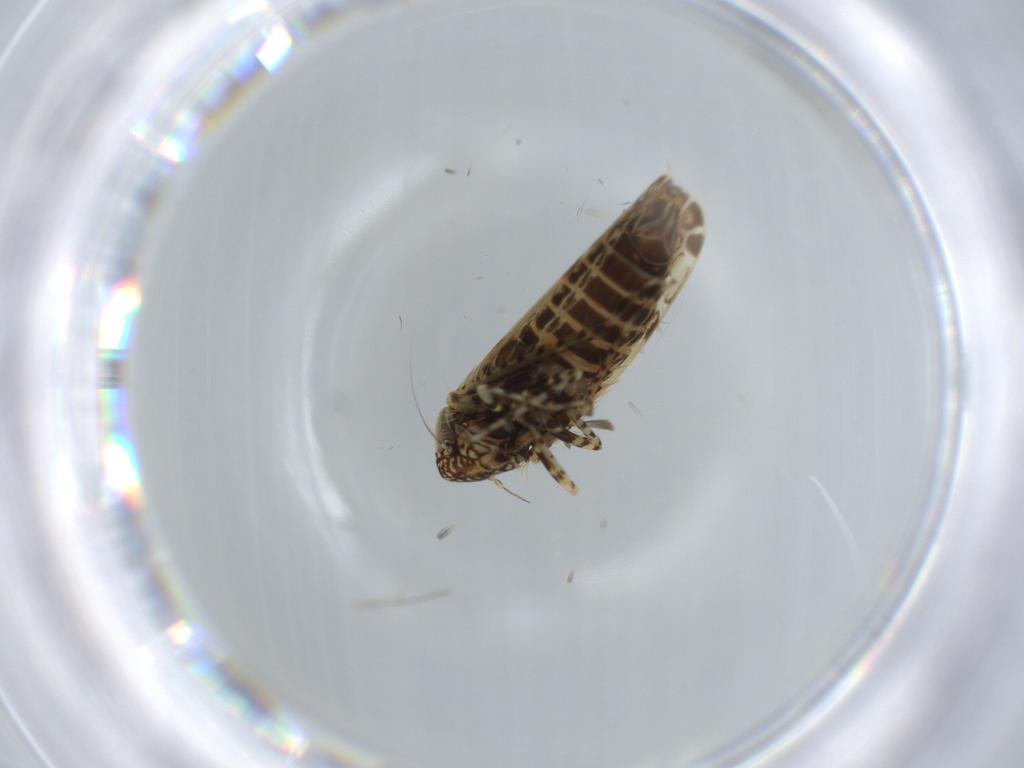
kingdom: Animalia
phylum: Arthropoda
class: Insecta
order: Hemiptera
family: Cicadellidae
